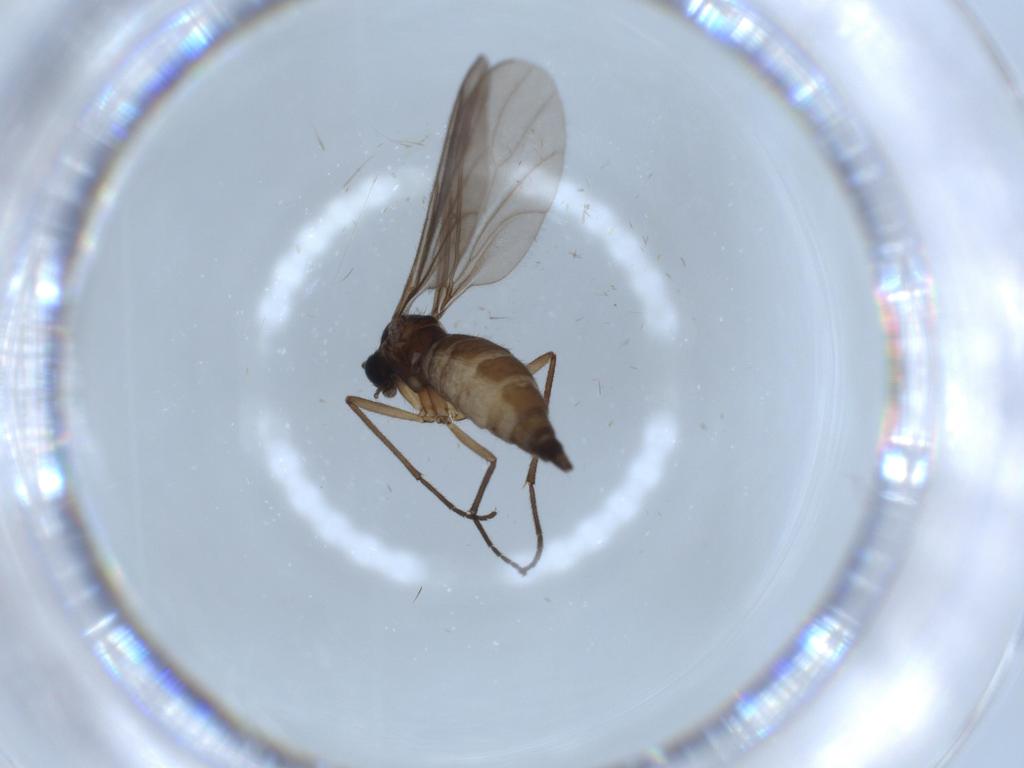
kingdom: Animalia
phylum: Arthropoda
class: Insecta
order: Diptera
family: Sciaridae
